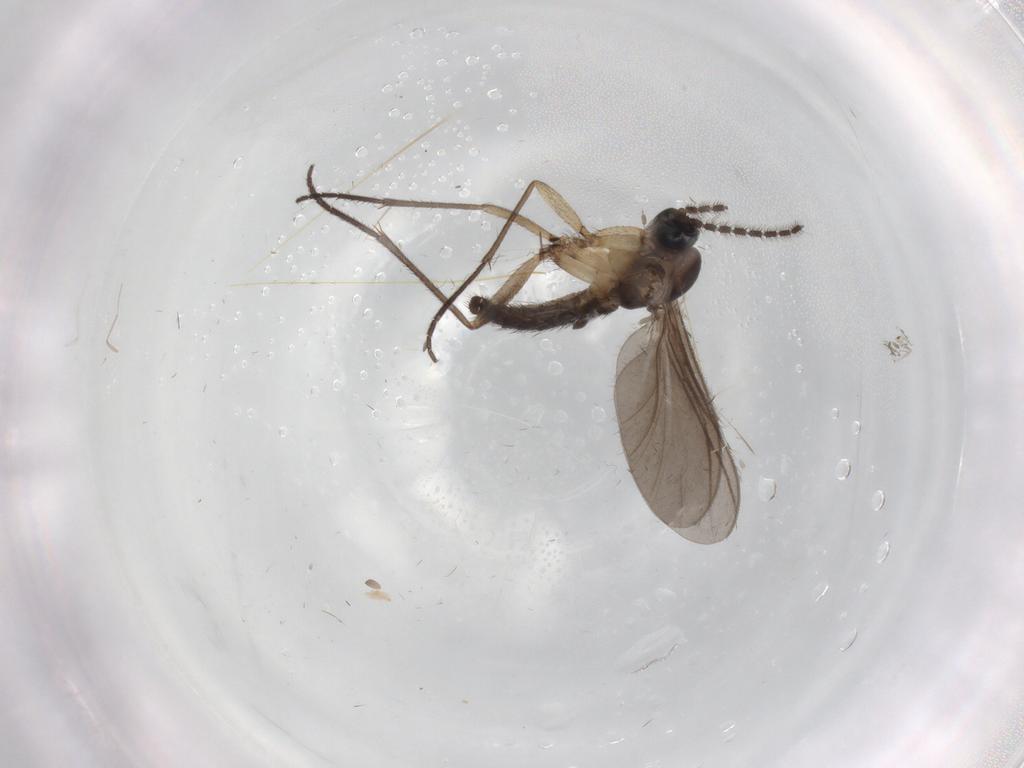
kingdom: Animalia
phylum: Arthropoda
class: Insecta
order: Diptera
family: Sciaridae
